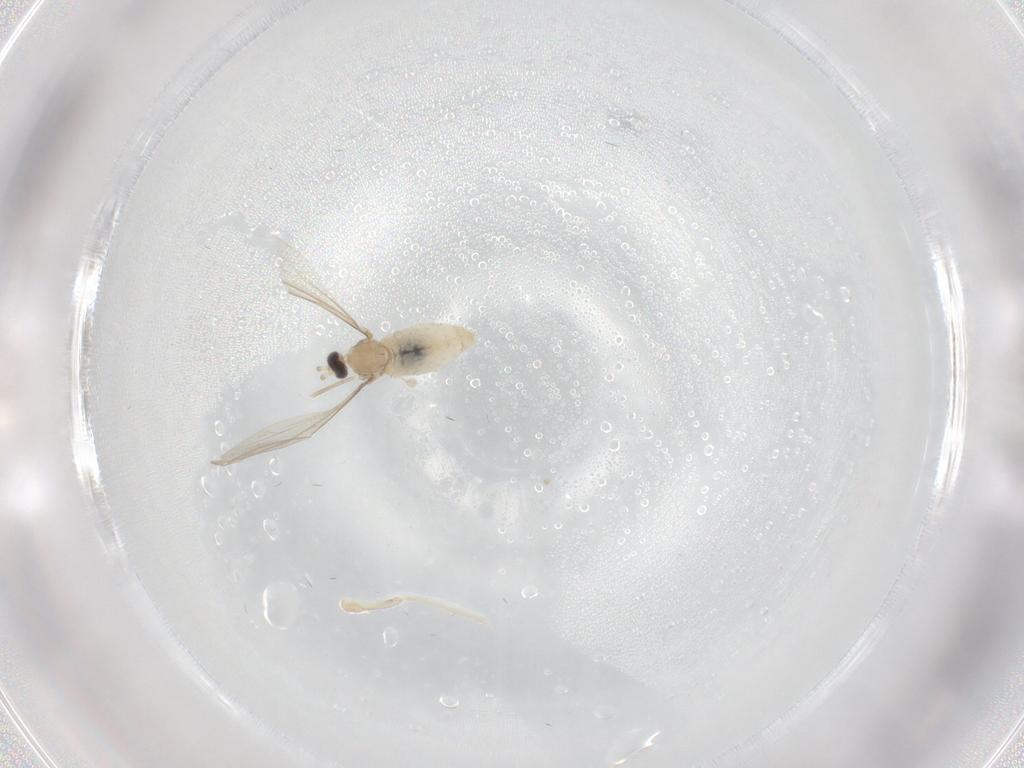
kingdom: Animalia
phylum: Arthropoda
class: Insecta
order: Diptera
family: Cecidomyiidae
